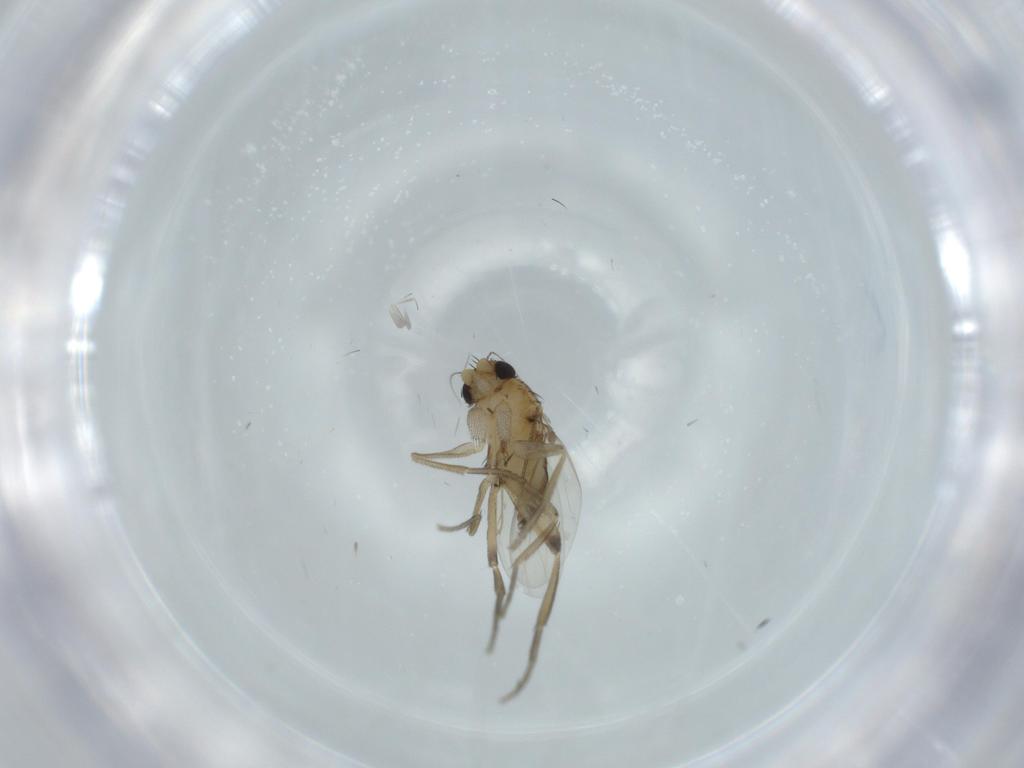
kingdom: Animalia
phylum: Arthropoda
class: Insecta
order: Diptera
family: Phoridae
